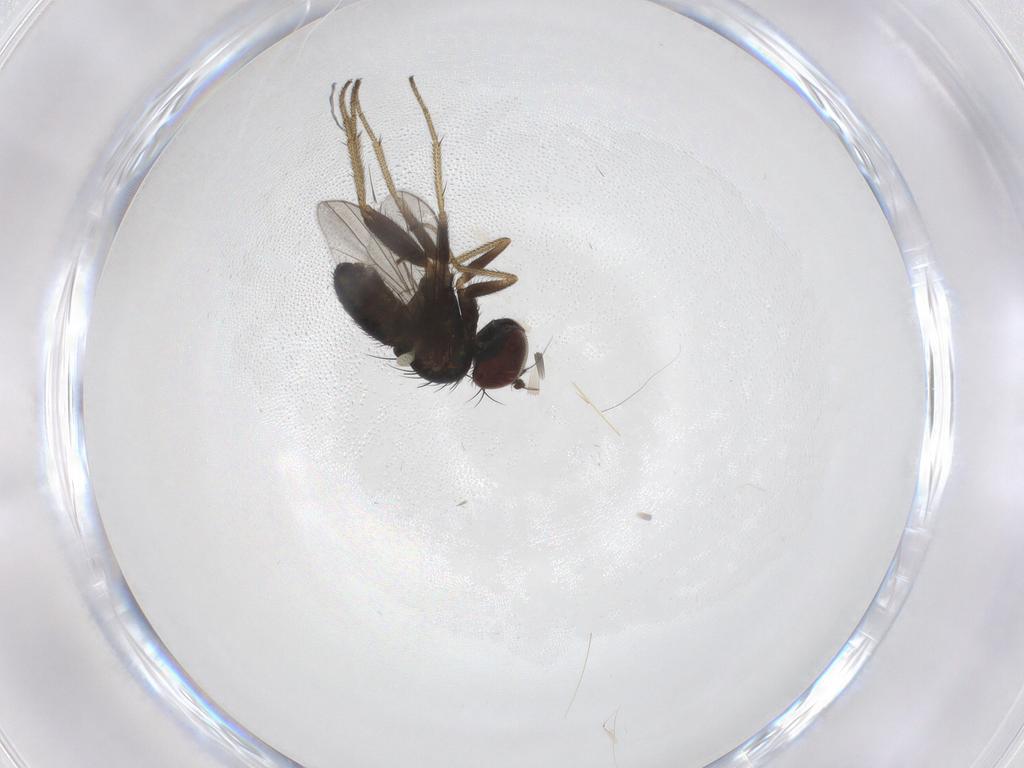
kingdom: Animalia
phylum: Arthropoda
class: Insecta
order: Diptera
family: Dolichopodidae
